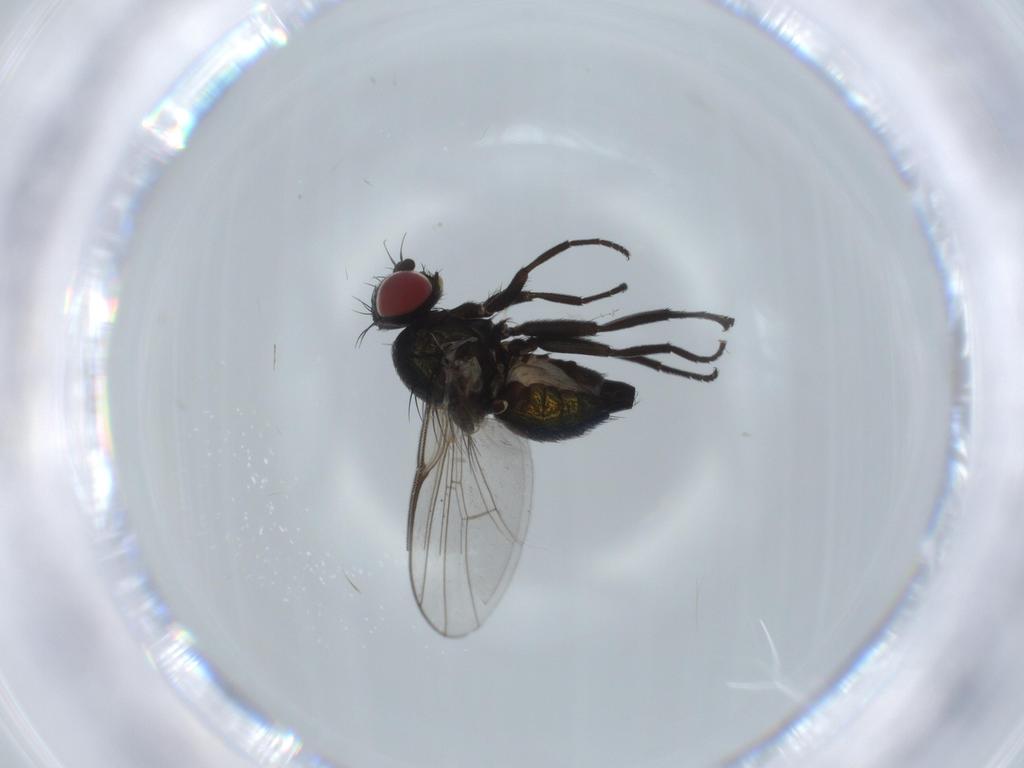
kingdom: Animalia
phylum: Arthropoda
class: Insecta
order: Diptera
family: Agromyzidae
